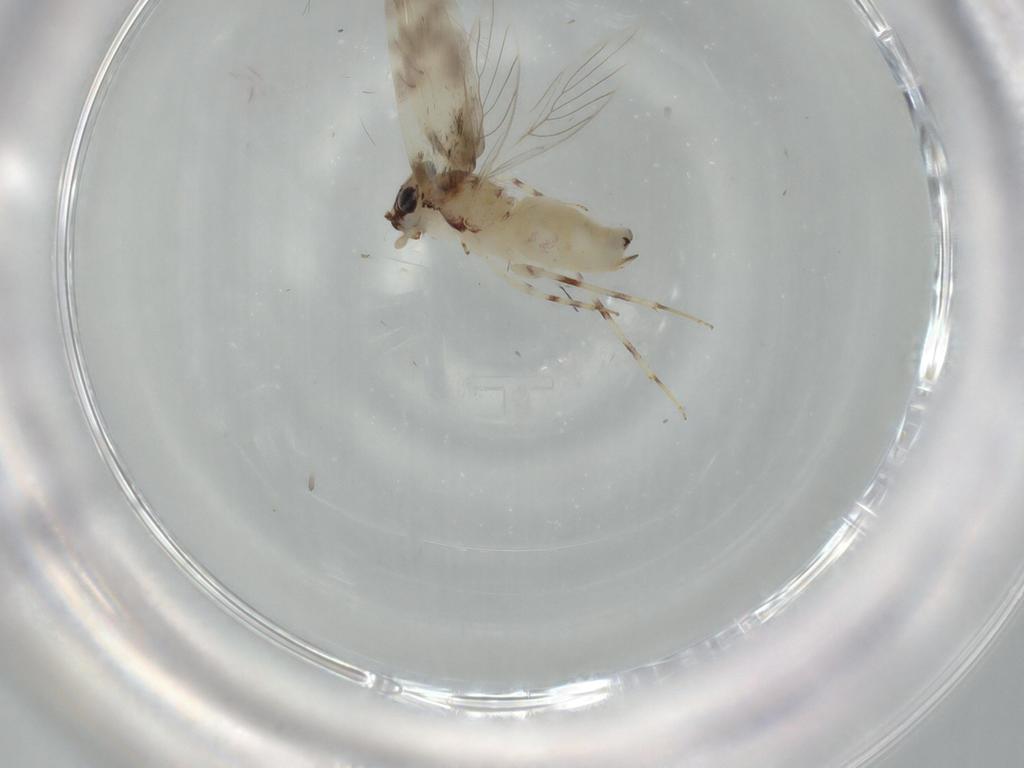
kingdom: Animalia
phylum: Arthropoda
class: Insecta
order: Psocodea
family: Lepidopsocidae
